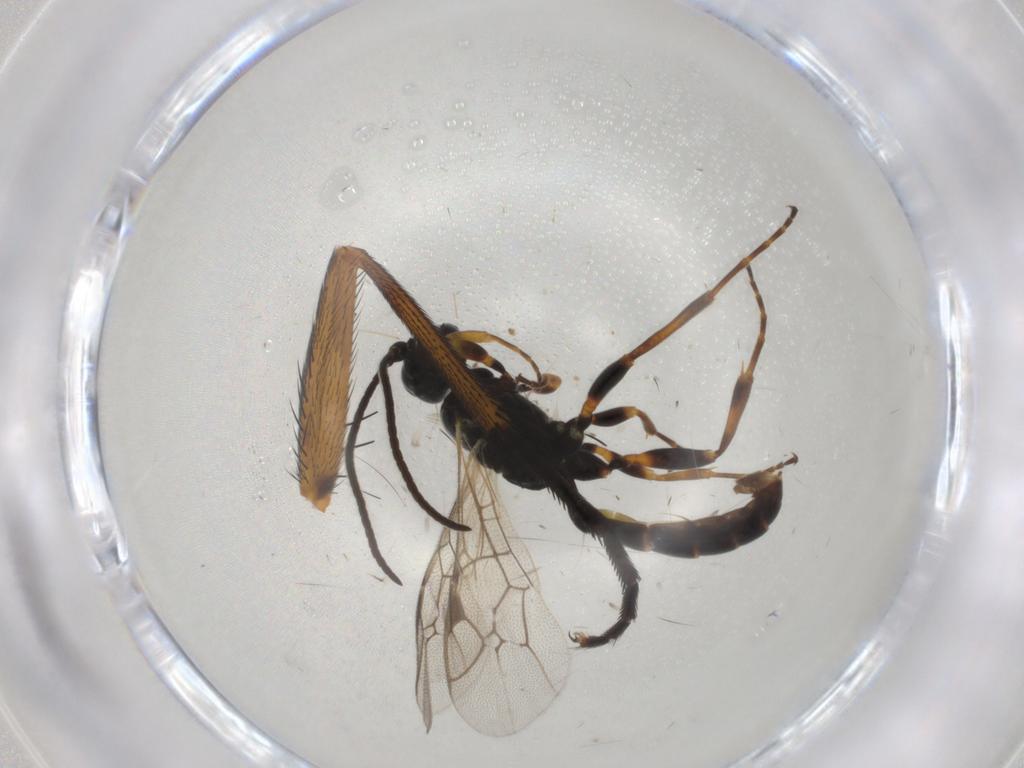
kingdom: Animalia
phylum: Arthropoda
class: Insecta
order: Hymenoptera
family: Ichneumonidae
